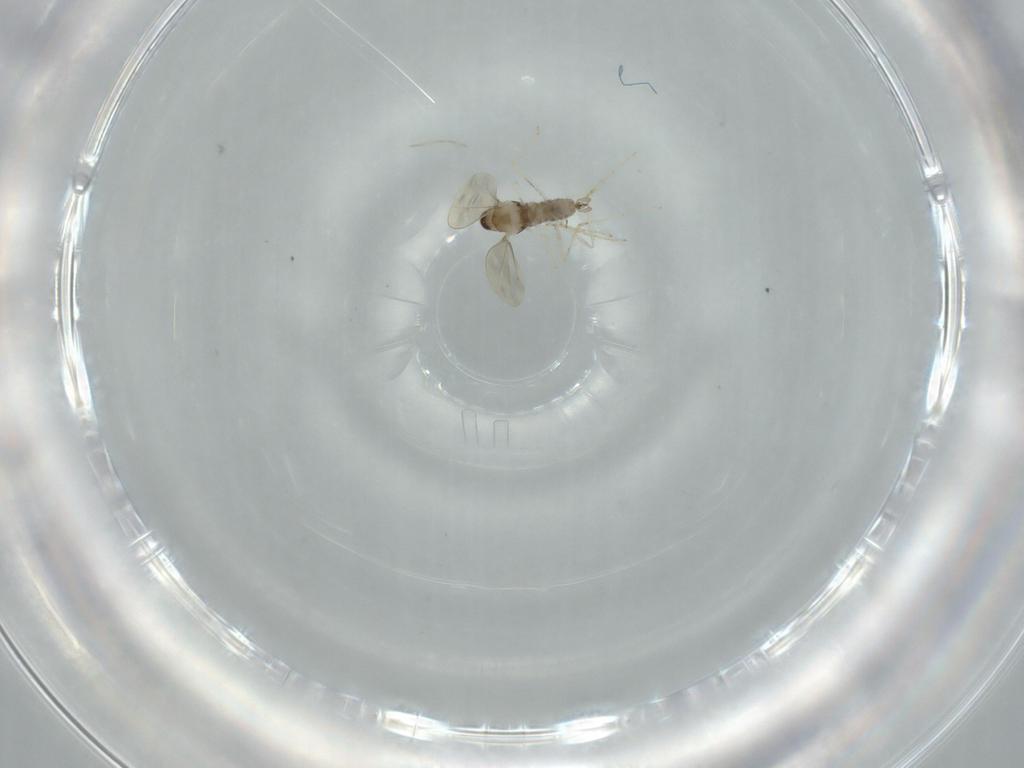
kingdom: Animalia
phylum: Arthropoda
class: Insecta
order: Diptera
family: Cecidomyiidae
